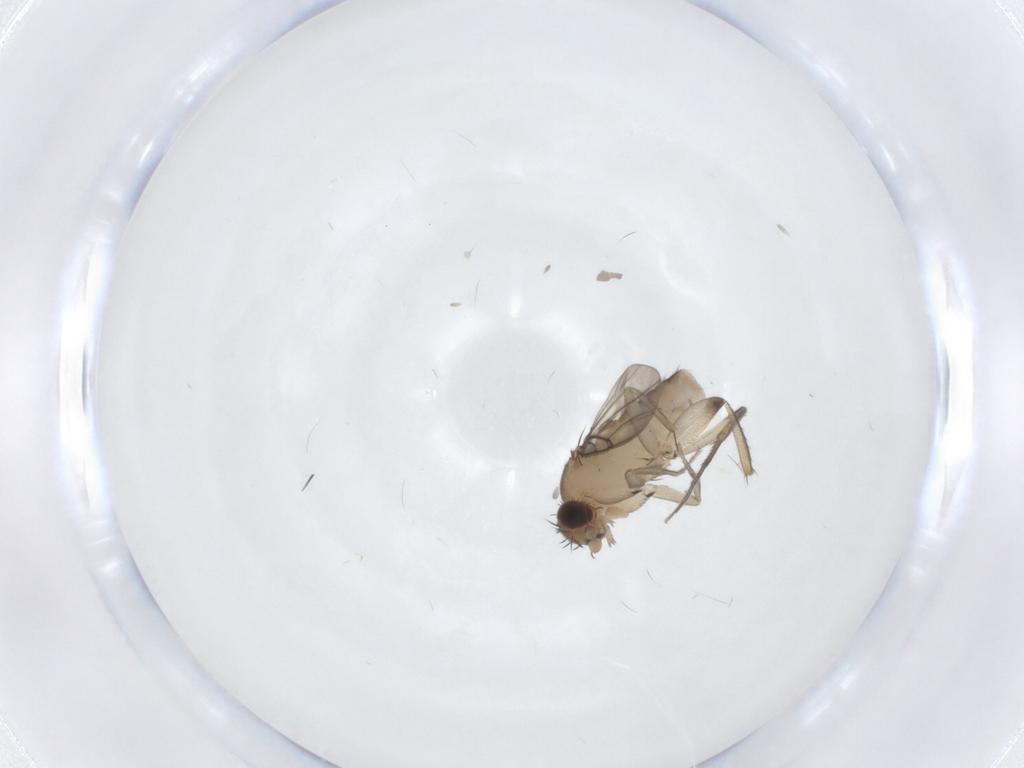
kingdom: Animalia
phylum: Arthropoda
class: Insecta
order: Diptera
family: Phoridae
